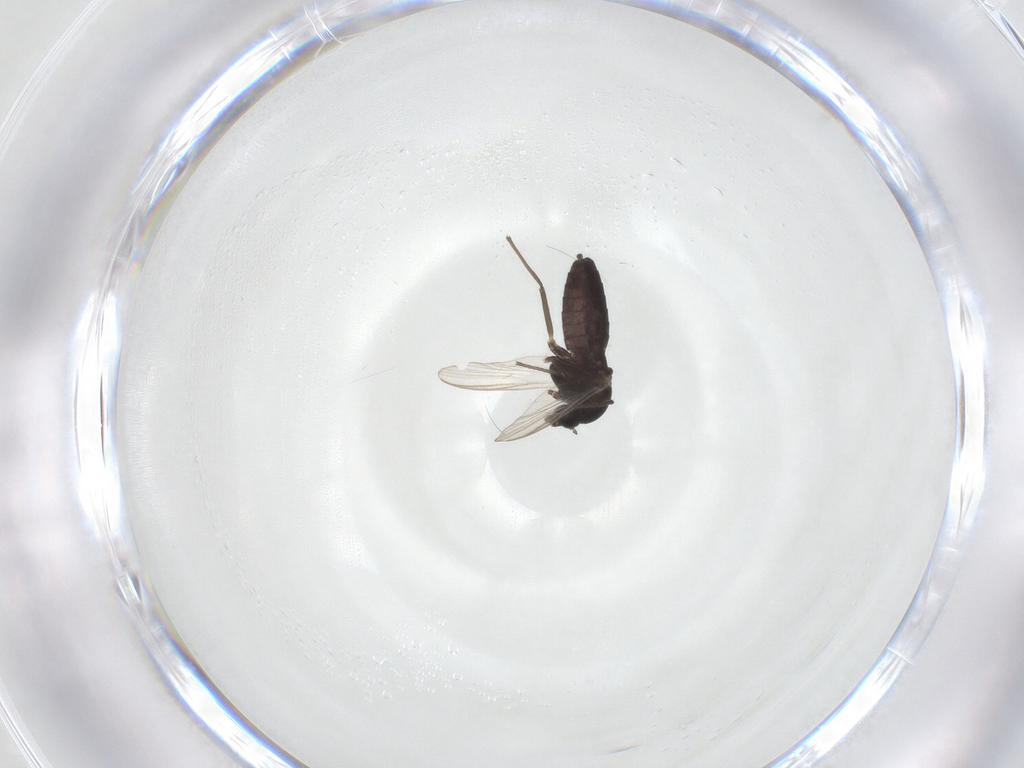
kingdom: Animalia
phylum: Arthropoda
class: Insecta
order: Diptera
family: Chironomidae
